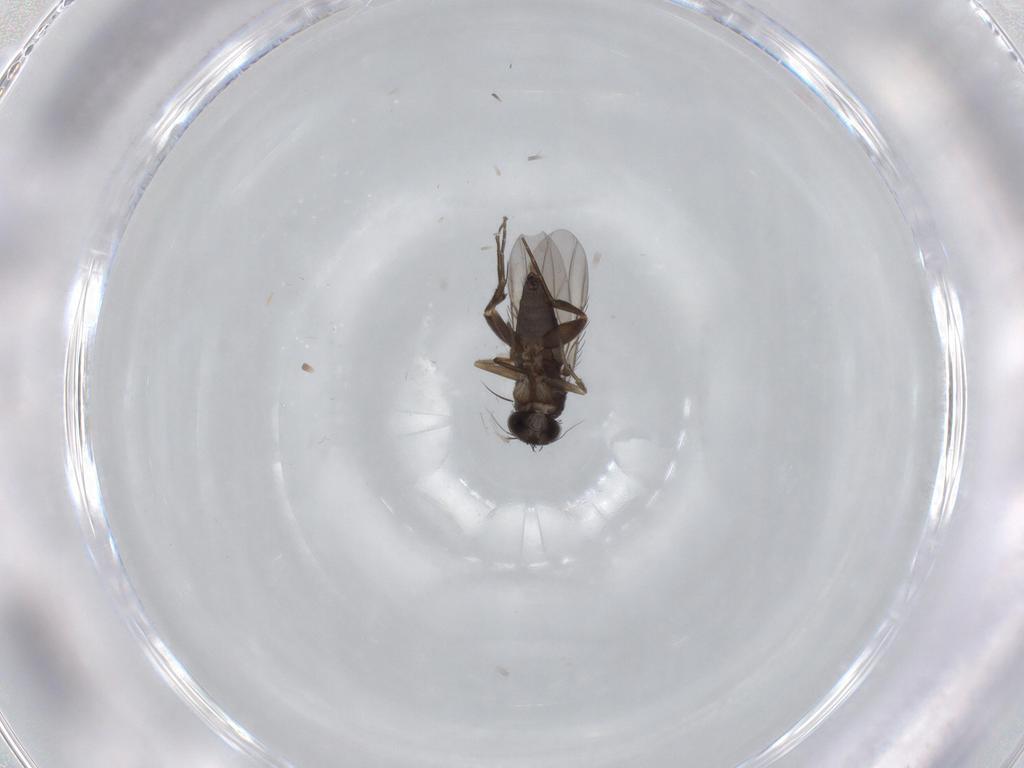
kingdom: Animalia
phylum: Arthropoda
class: Insecta
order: Diptera
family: Phoridae
